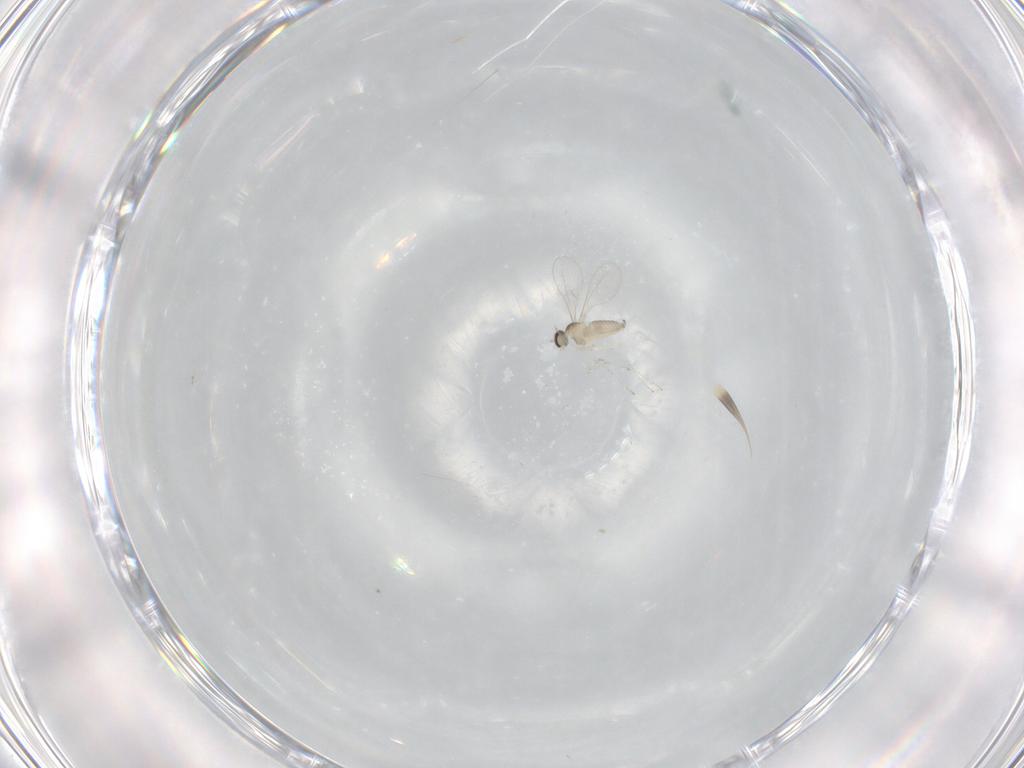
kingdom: Animalia
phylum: Arthropoda
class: Insecta
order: Diptera
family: Cecidomyiidae
